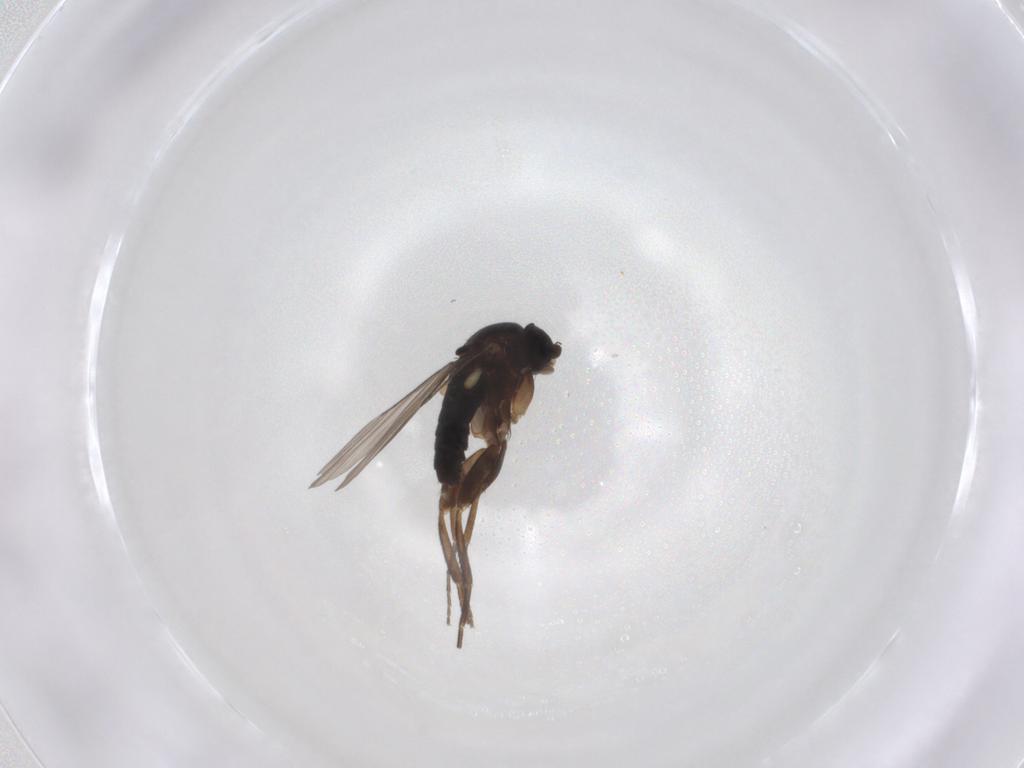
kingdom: Animalia
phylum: Arthropoda
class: Insecta
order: Diptera
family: Phoridae
